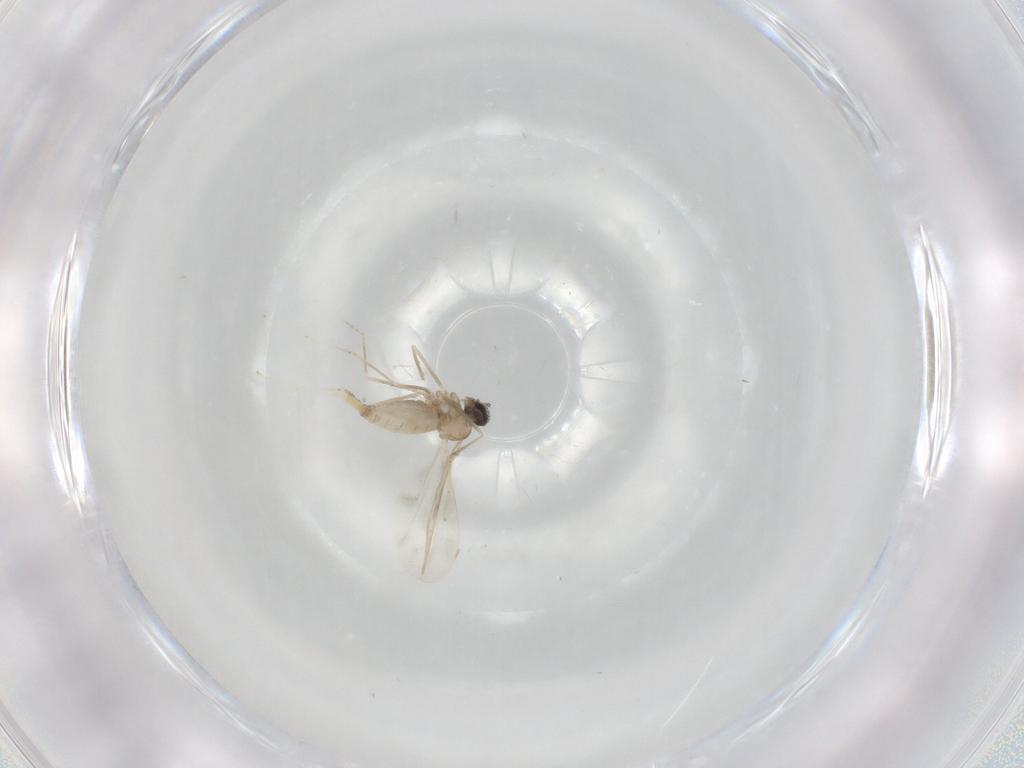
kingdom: Animalia
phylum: Arthropoda
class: Insecta
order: Diptera
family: Cecidomyiidae
